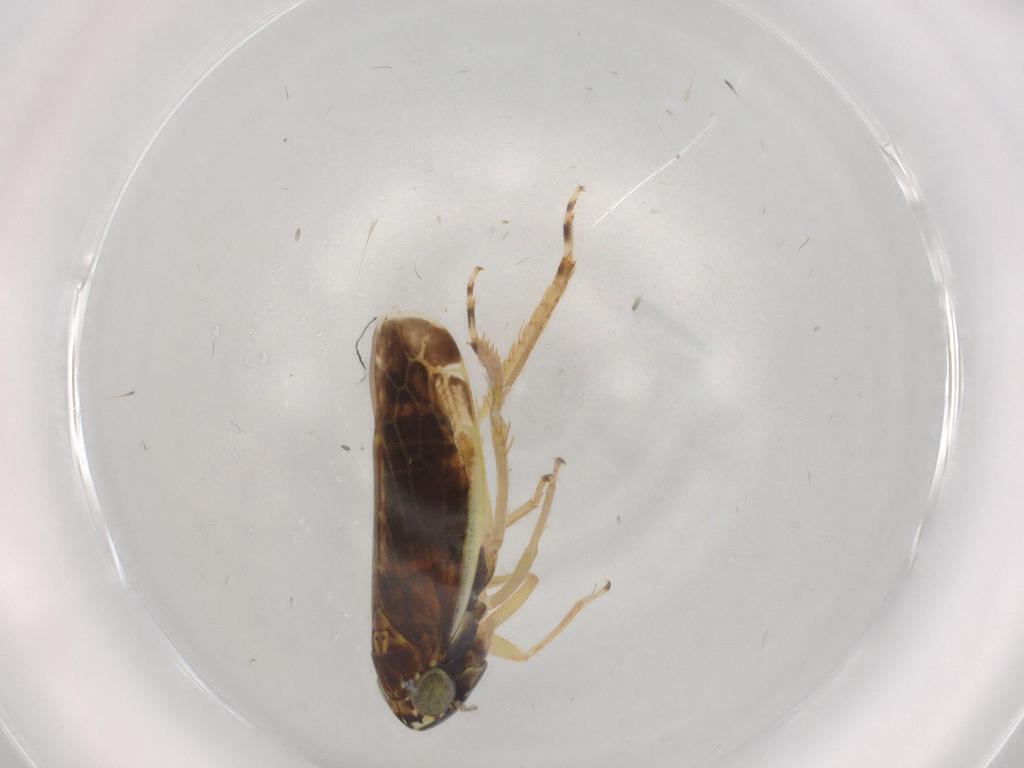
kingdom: Animalia
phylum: Arthropoda
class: Insecta
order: Hemiptera
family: Cicadellidae
